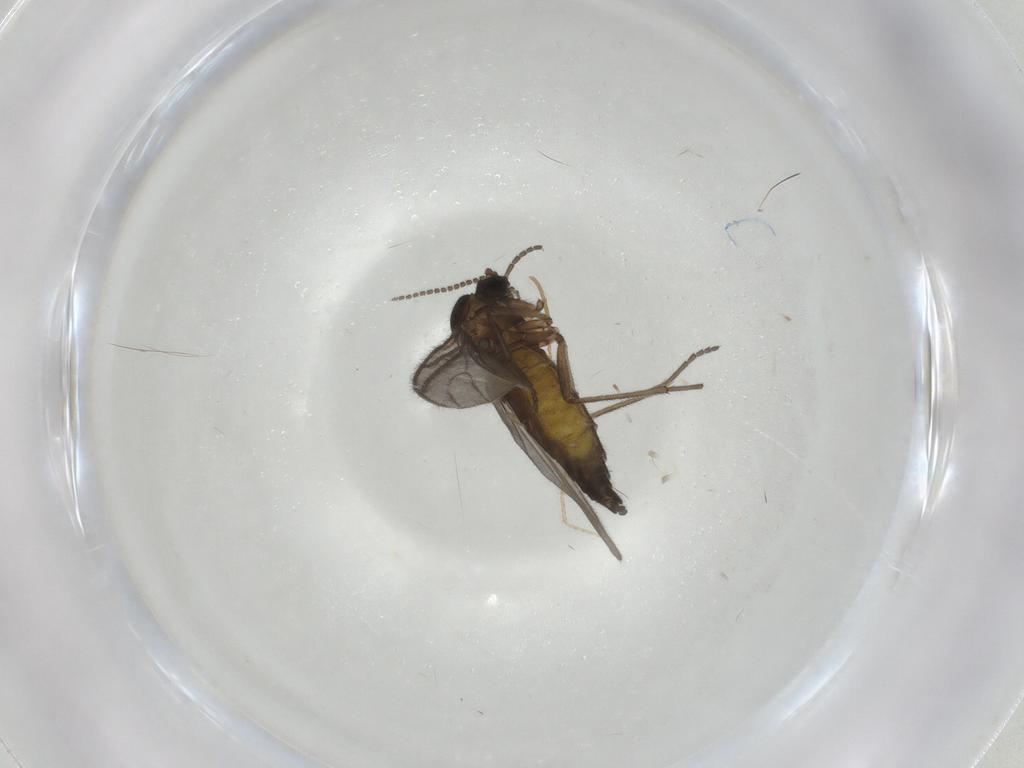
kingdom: Animalia
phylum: Arthropoda
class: Insecta
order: Diptera
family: Sciaridae
